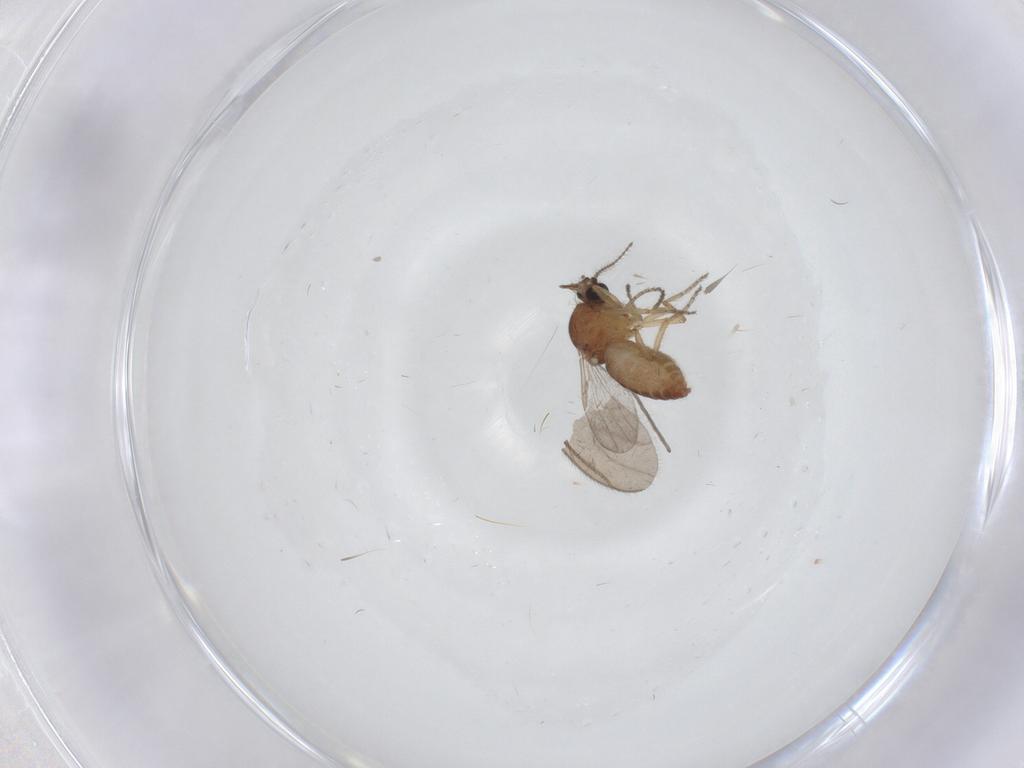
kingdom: Animalia
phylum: Arthropoda
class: Insecta
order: Diptera
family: Ceratopogonidae
